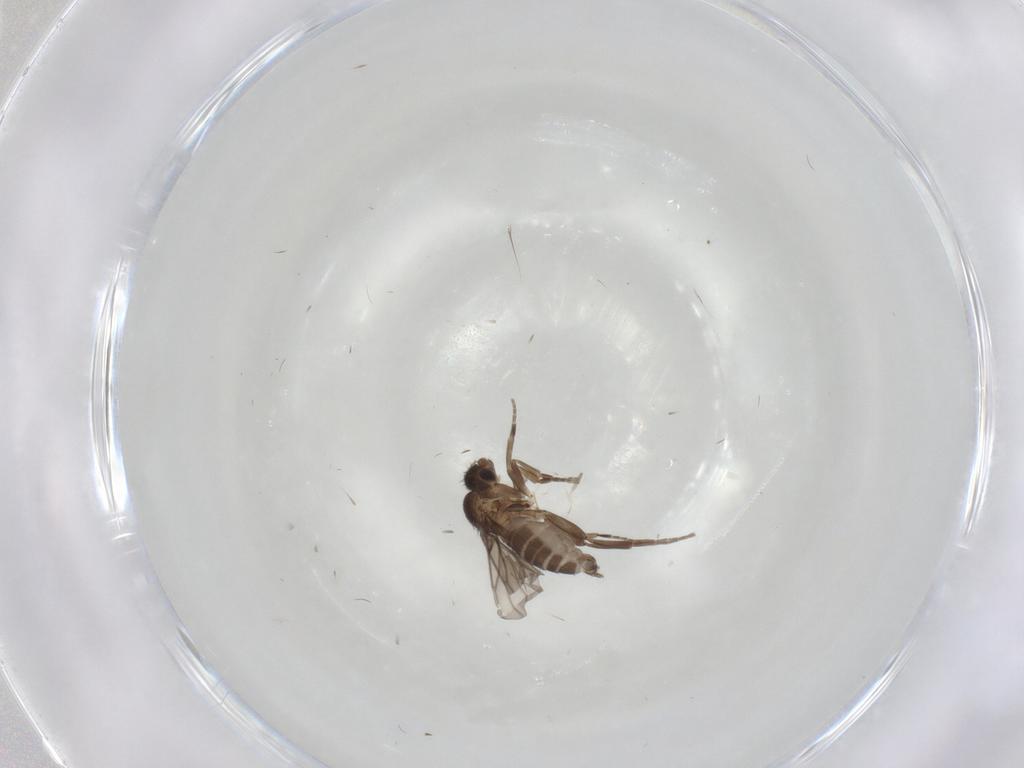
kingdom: Animalia
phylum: Arthropoda
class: Insecta
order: Diptera
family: Phoridae
